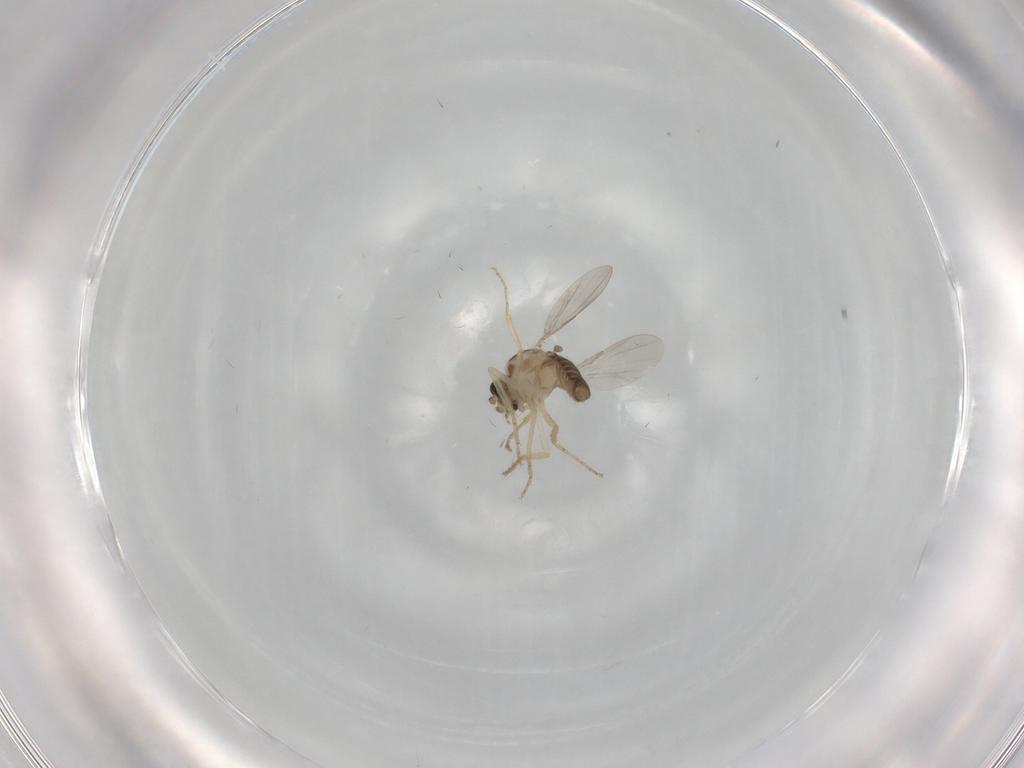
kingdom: Animalia
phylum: Arthropoda
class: Insecta
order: Diptera
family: Ceratopogonidae
